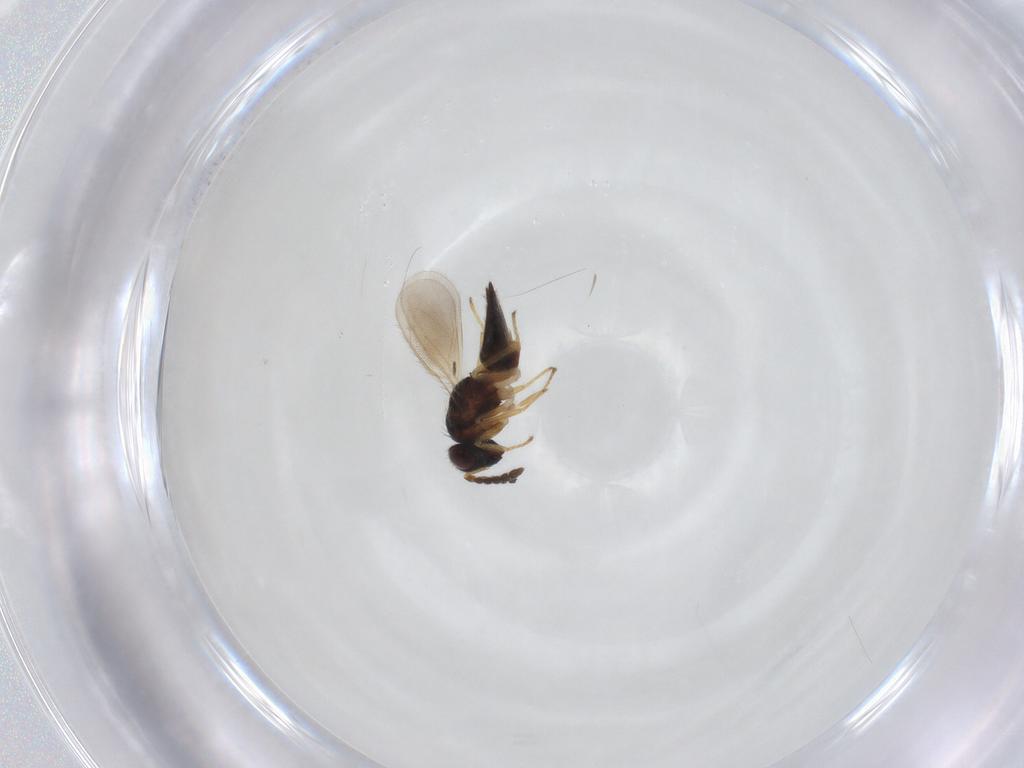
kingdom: Animalia
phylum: Arthropoda
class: Insecta
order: Hymenoptera
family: Eulophidae
